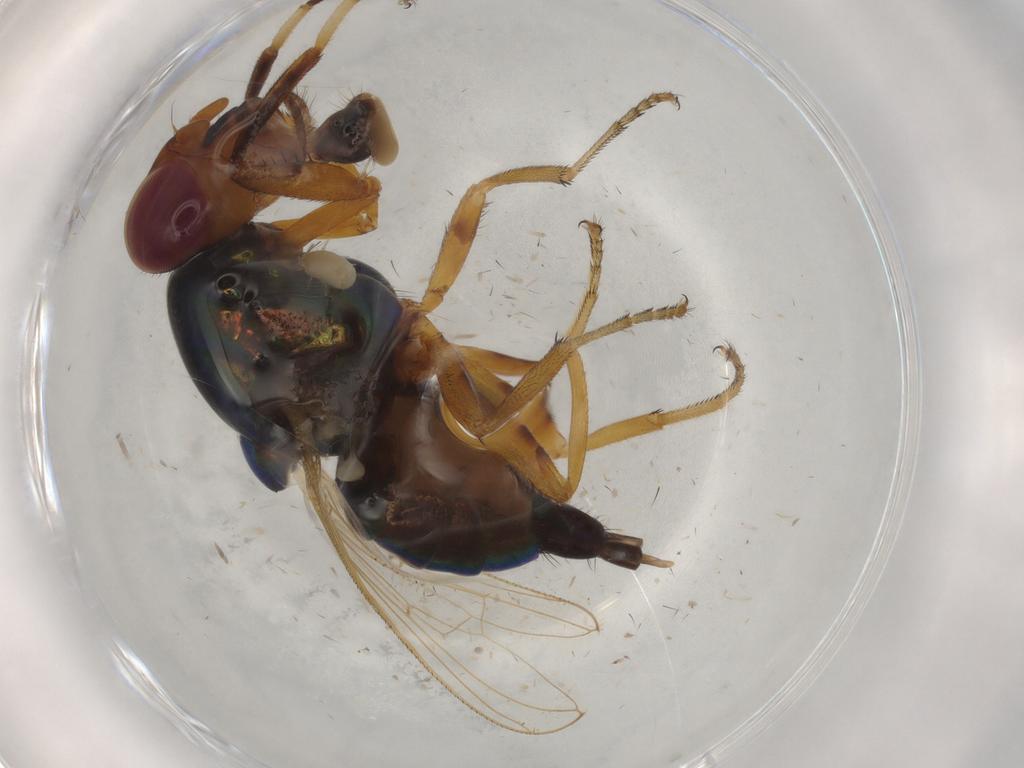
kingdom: Animalia
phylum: Arthropoda
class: Insecta
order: Diptera
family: Ulidiidae
